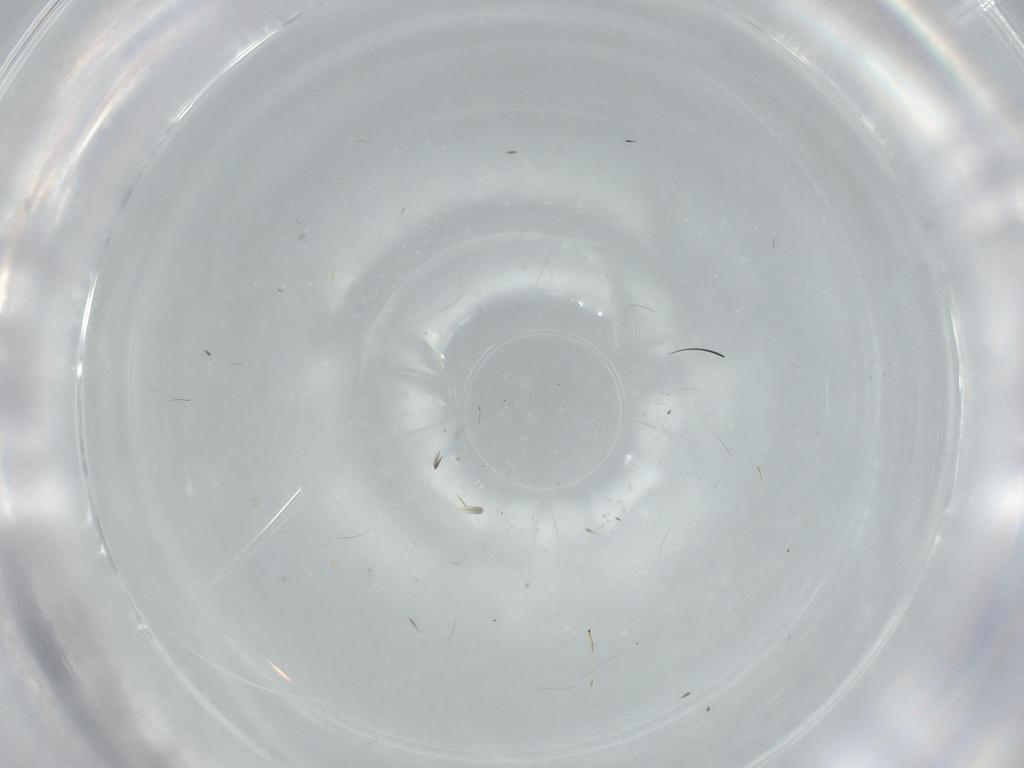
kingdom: Animalia
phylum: Arthropoda
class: Insecta
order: Diptera
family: Stratiomyidae
